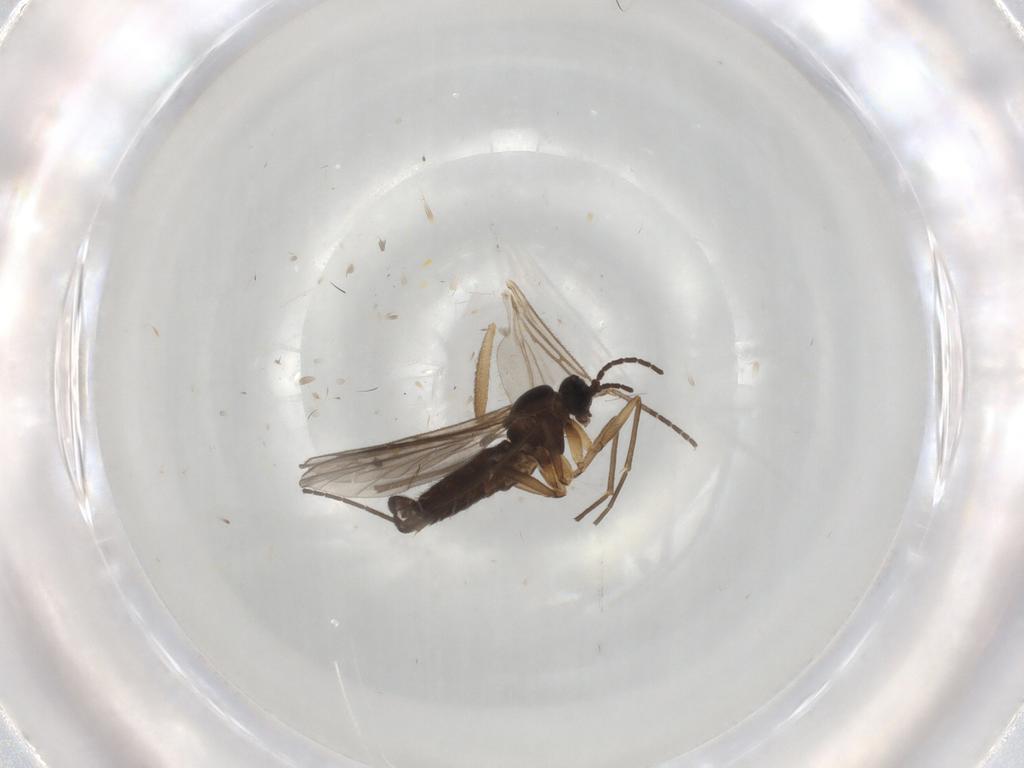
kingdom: Animalia
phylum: Arthropoda
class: Insecta
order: Diptera
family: Sciaridae
